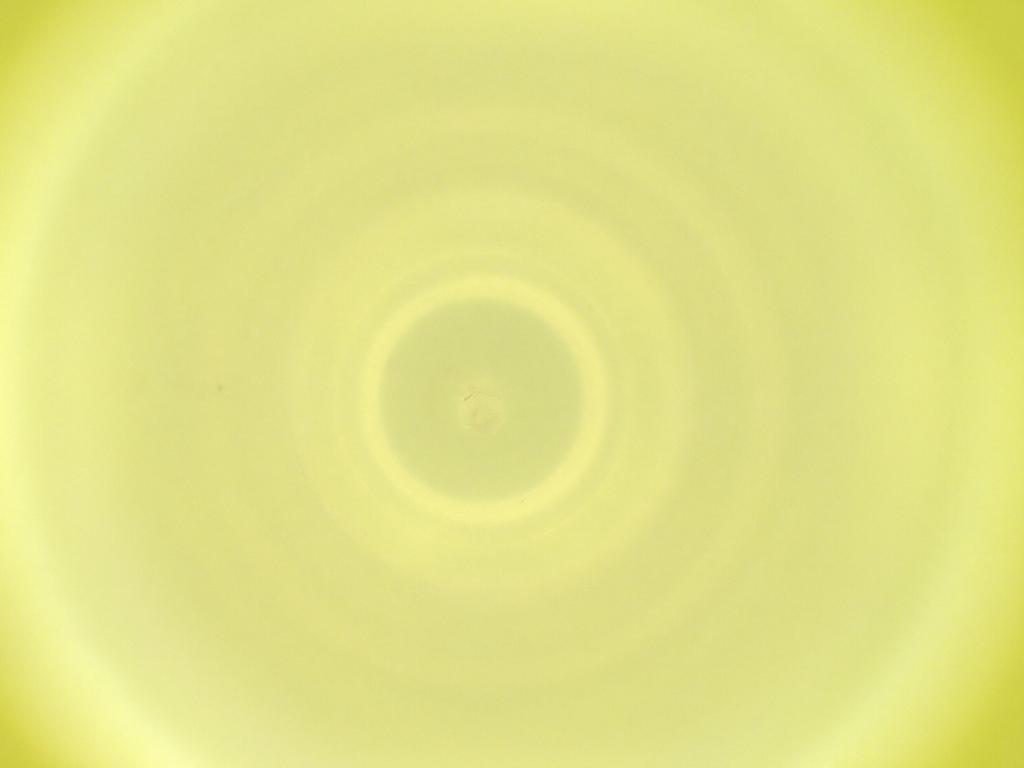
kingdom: Animalia
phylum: Arthropoda
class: Insecta
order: Diptera
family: Cecidomyiidae
